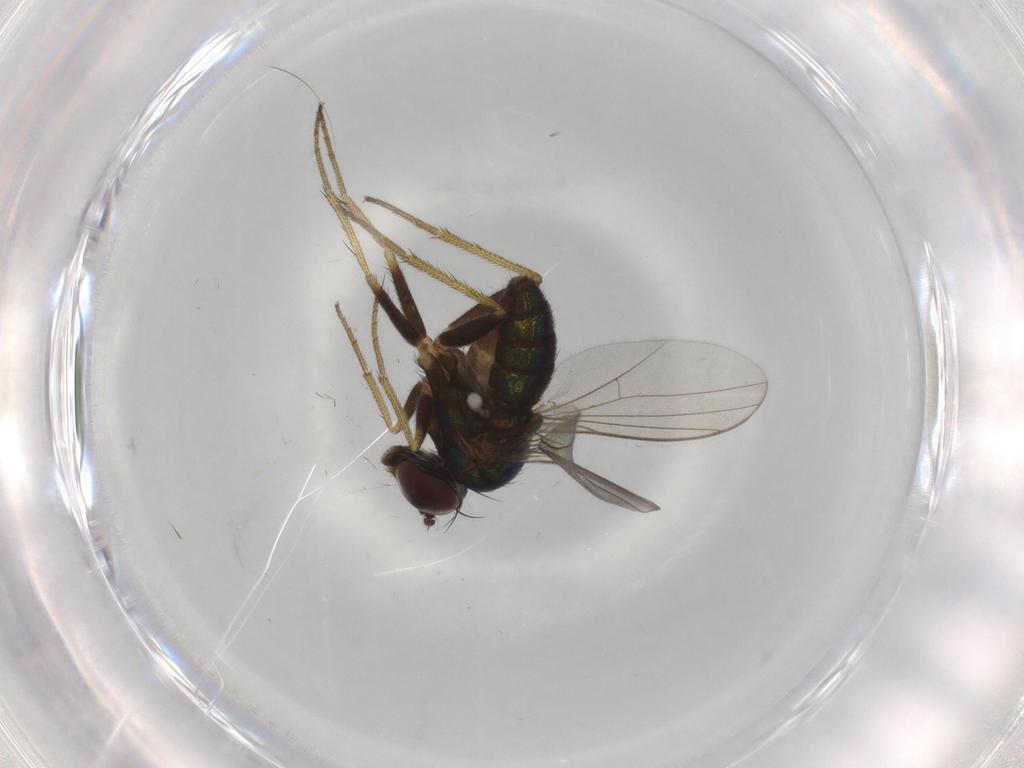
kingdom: Animalia
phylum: Arthropoda
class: Insecta
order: Diptera
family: Dolichopodidae
